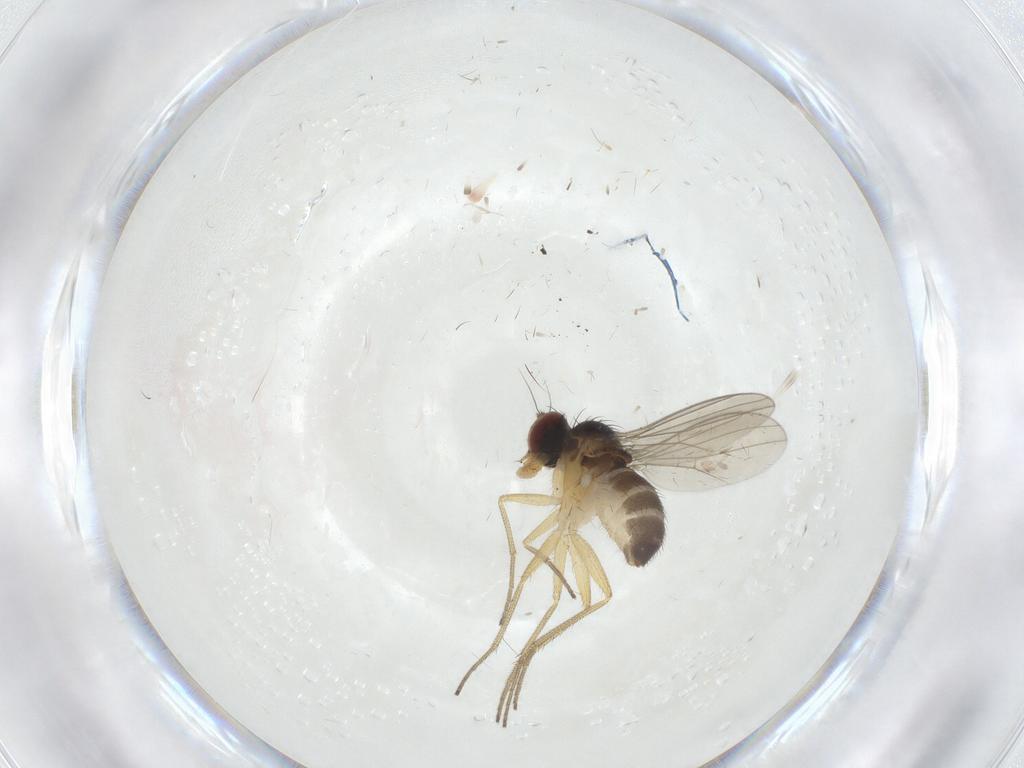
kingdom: Animalia
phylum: Arthropoda
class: Insecta
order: Diptera
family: Dolichopodidae
